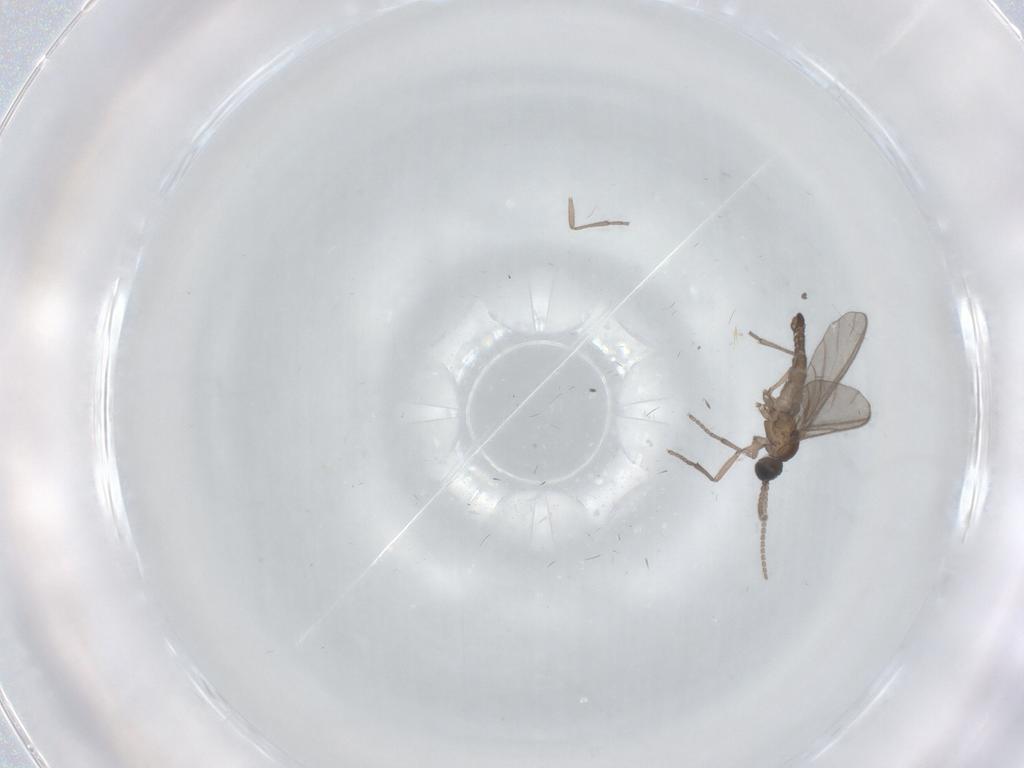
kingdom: Animalia
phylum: Arthropoda
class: Insecta
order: Diptera
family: Sciaridae
